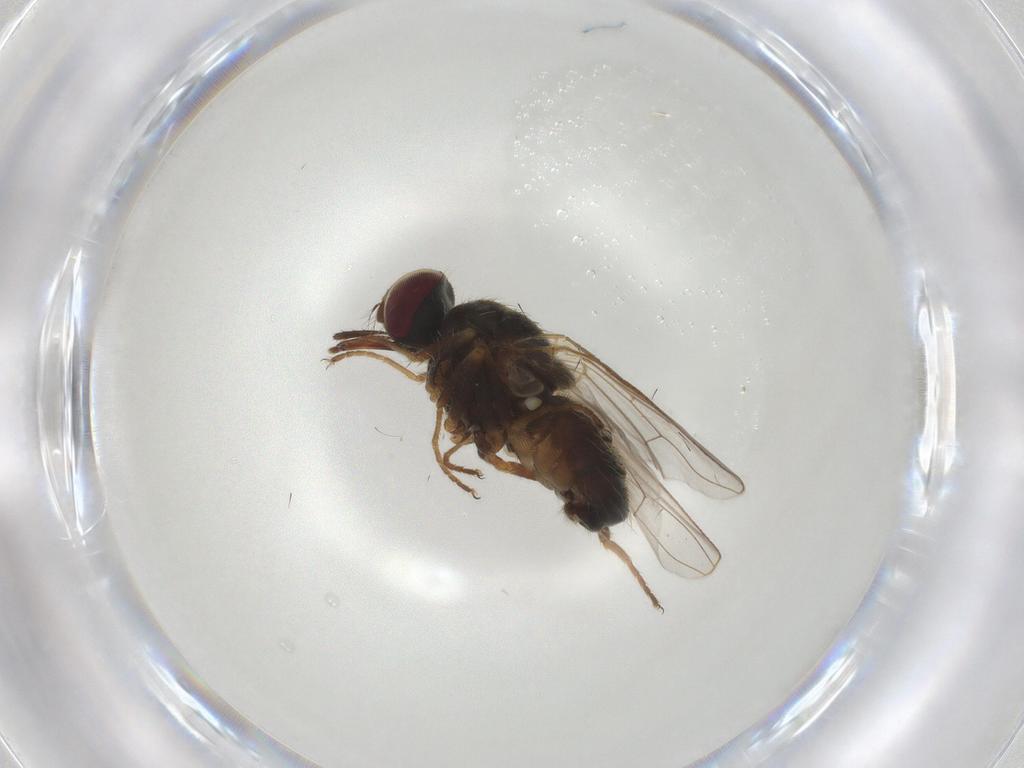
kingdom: Animalia
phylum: Arthropoda
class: Insecta
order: Diptera
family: Muscidae
